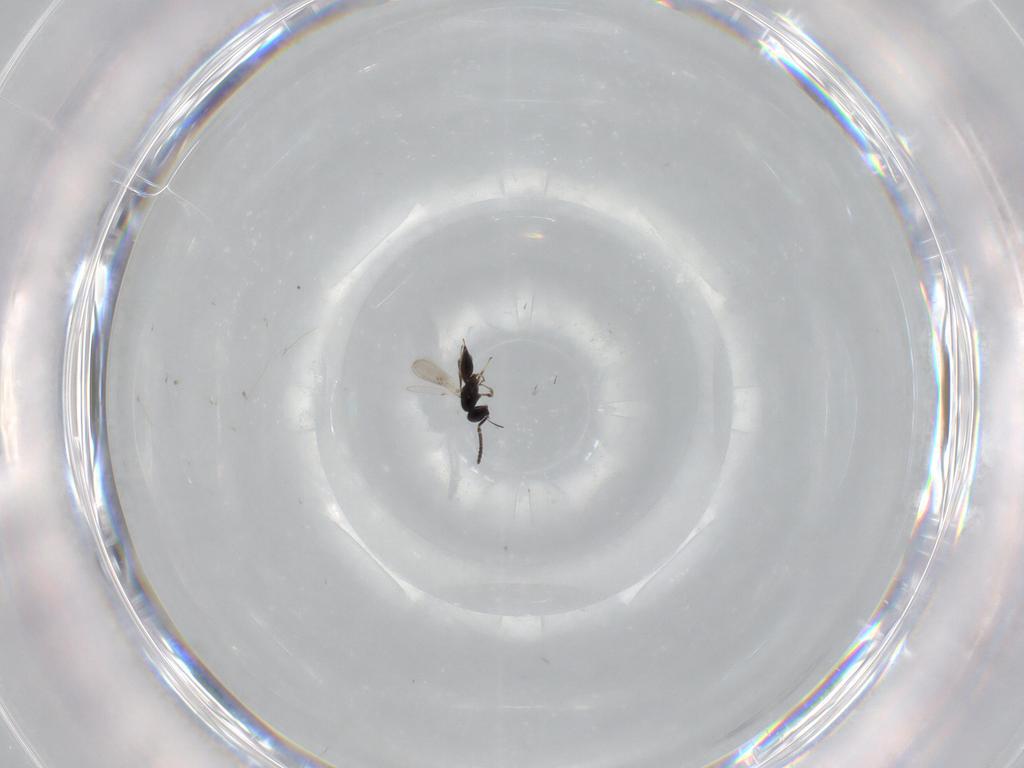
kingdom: Animalia
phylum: Arthropoda
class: Insecta
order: Hymenoptera
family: Scelionidae
